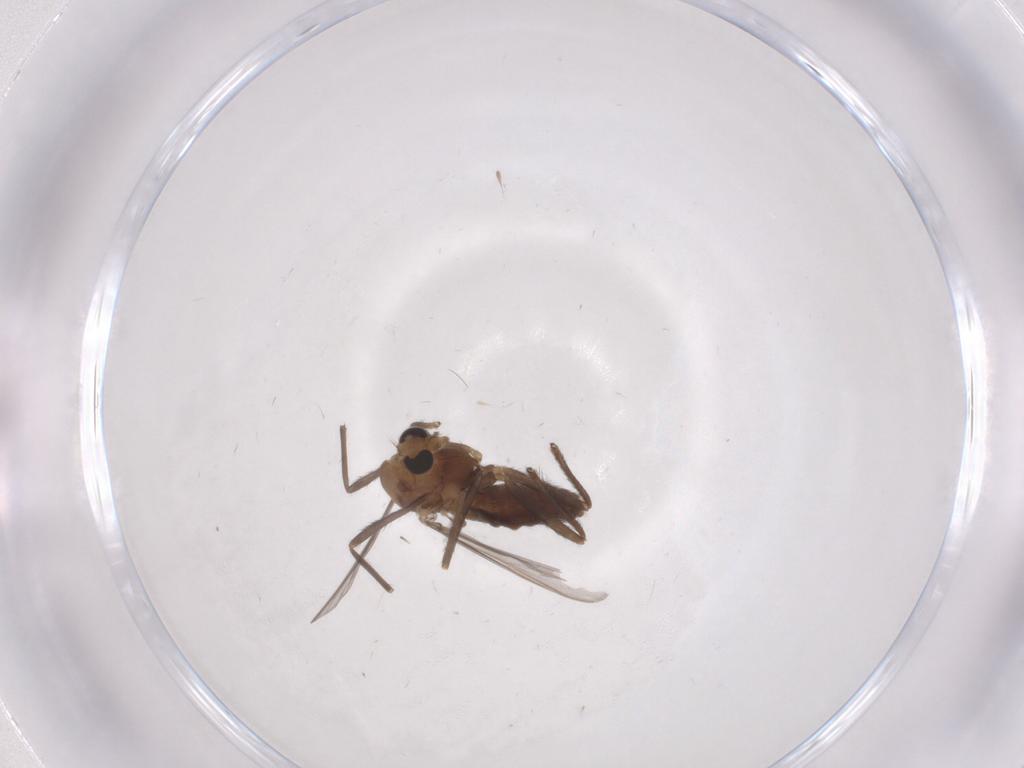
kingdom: Animalia
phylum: Arthropoda
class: Insecta
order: Diptera
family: Chironomidae
